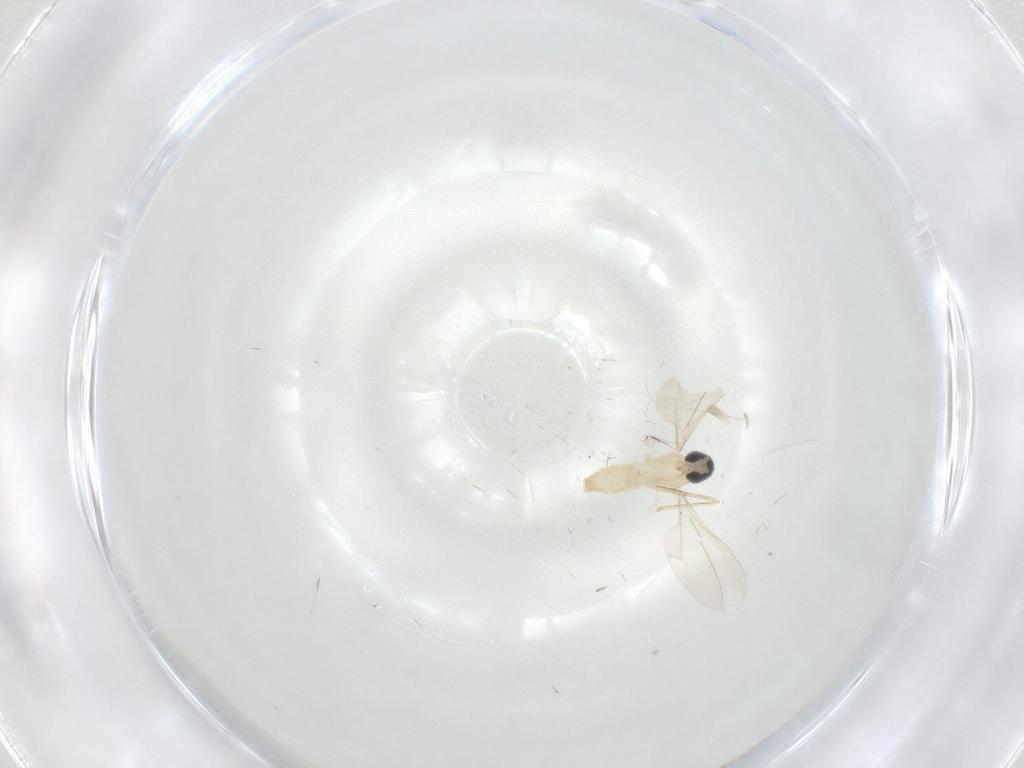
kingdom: Animalia
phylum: Arthropoda
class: Insecta
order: Diptera
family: Cecidomyiidae
